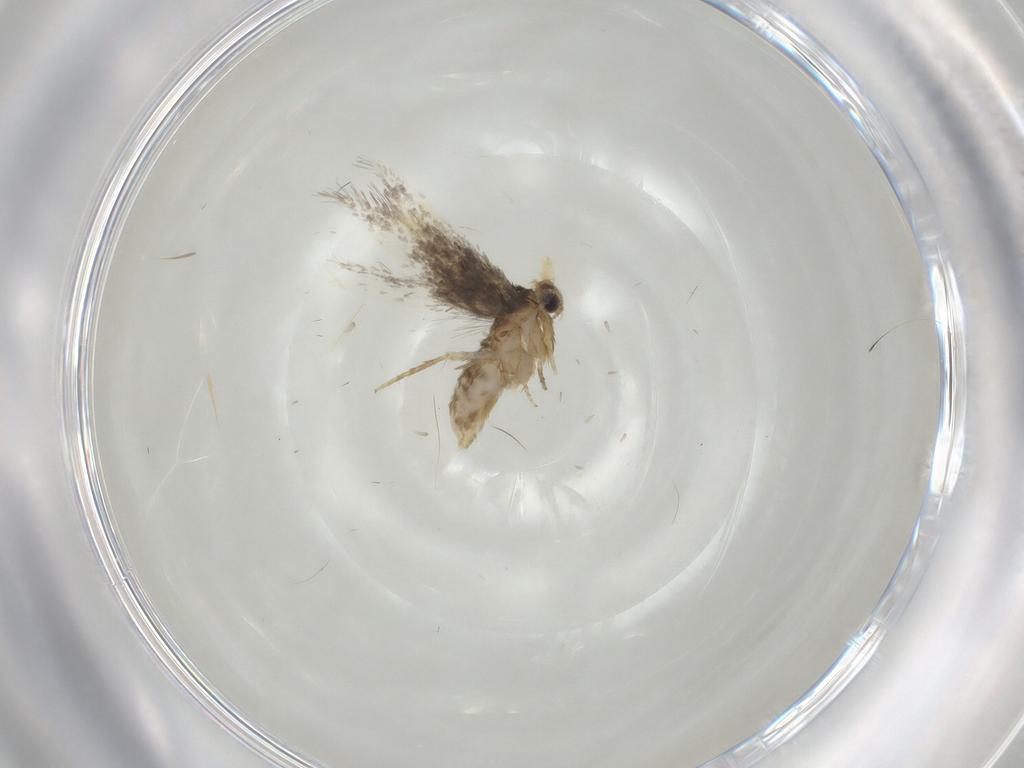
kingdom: Animalia
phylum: Arthropoda
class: Insecta
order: Lepidoptera
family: Nepticulidae
